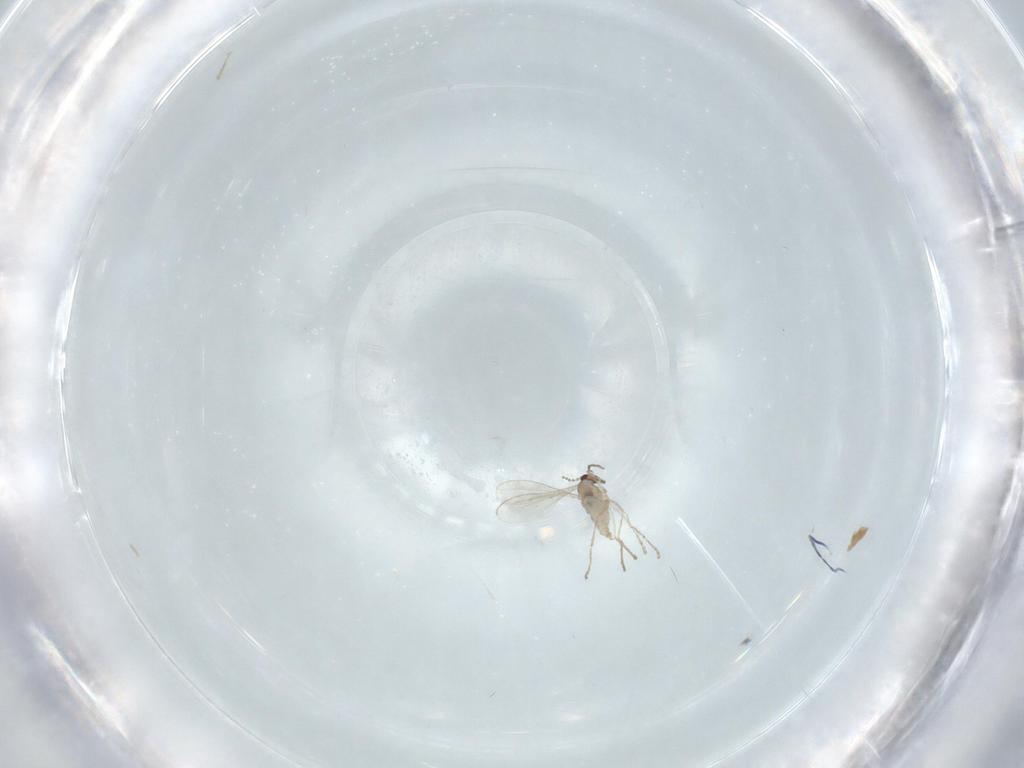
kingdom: Animalia
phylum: Arthropoda
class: Insecta
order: Diptera
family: Cecidomyiidae
